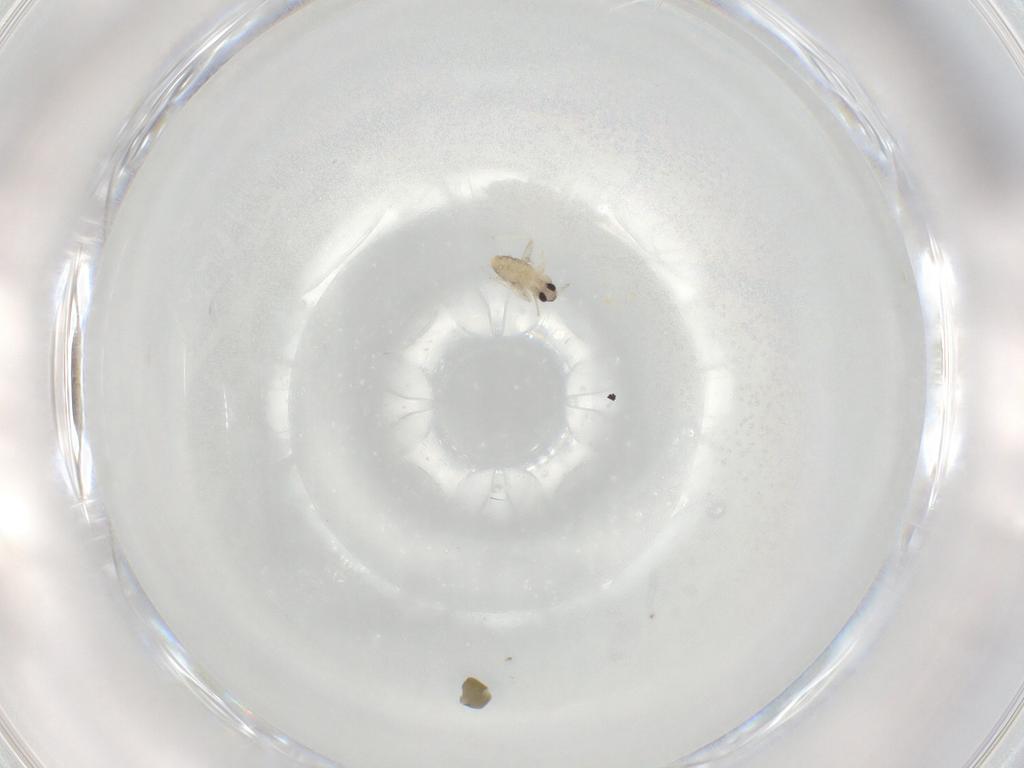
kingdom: Animalia
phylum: Arthropoda
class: Insecta
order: Diptera
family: Cecidomyiidae
